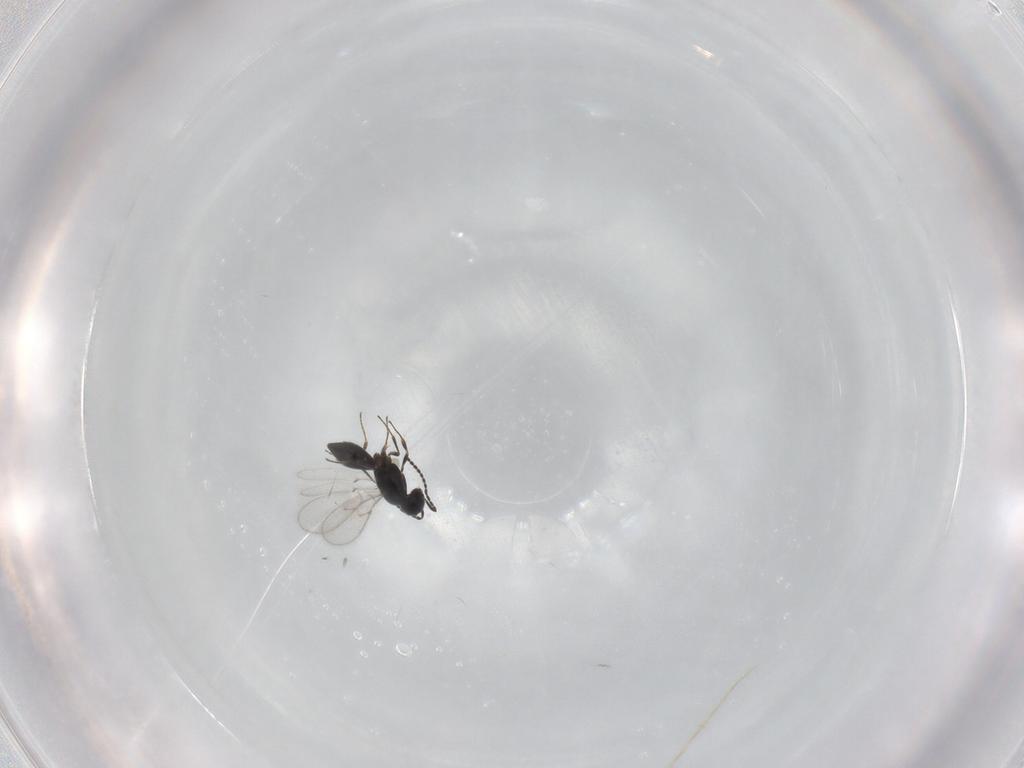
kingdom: Animalia
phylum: Arthropoda
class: Insecta
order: Hymenoptera
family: Scelionidae
